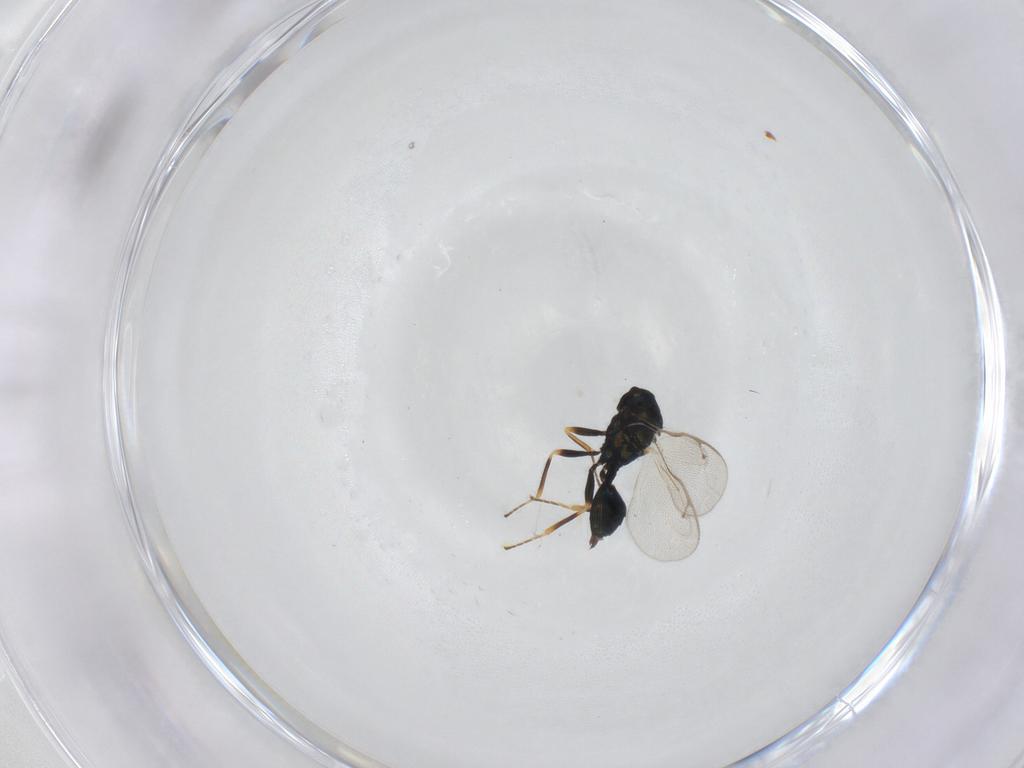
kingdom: Animalia
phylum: Arthropoda
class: Insecta
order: Hymenoptera
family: Pteromalidae
